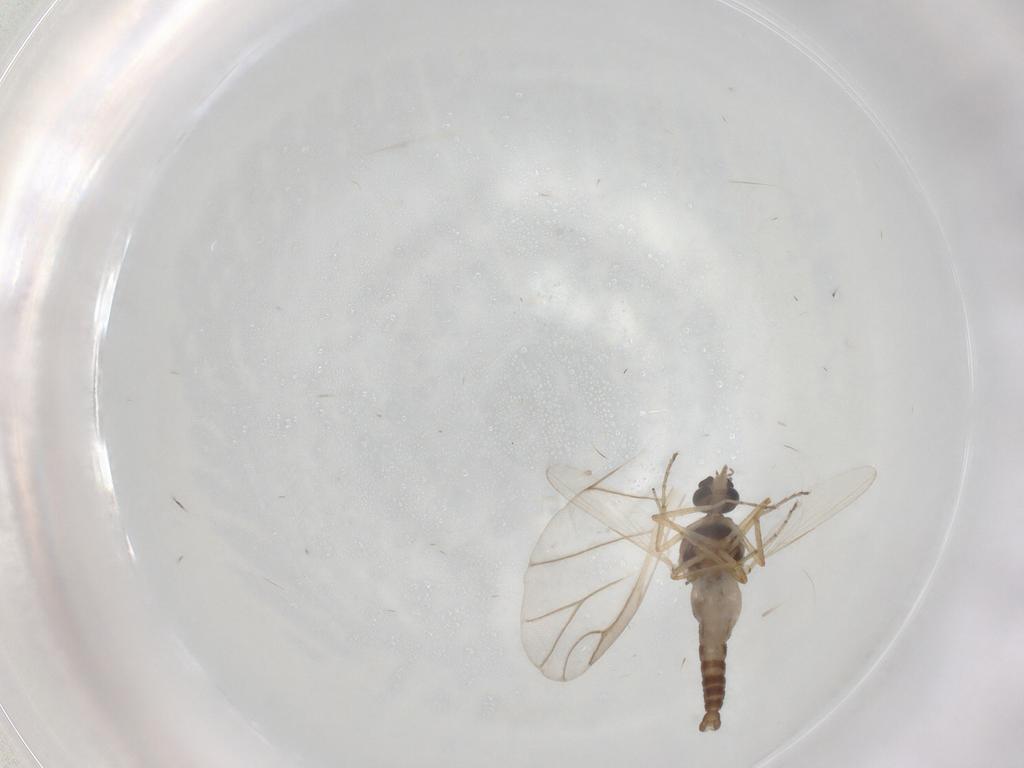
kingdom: Animalia
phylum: Arthropoda
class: Insecta
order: Diptera
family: Ceratopogonidae
